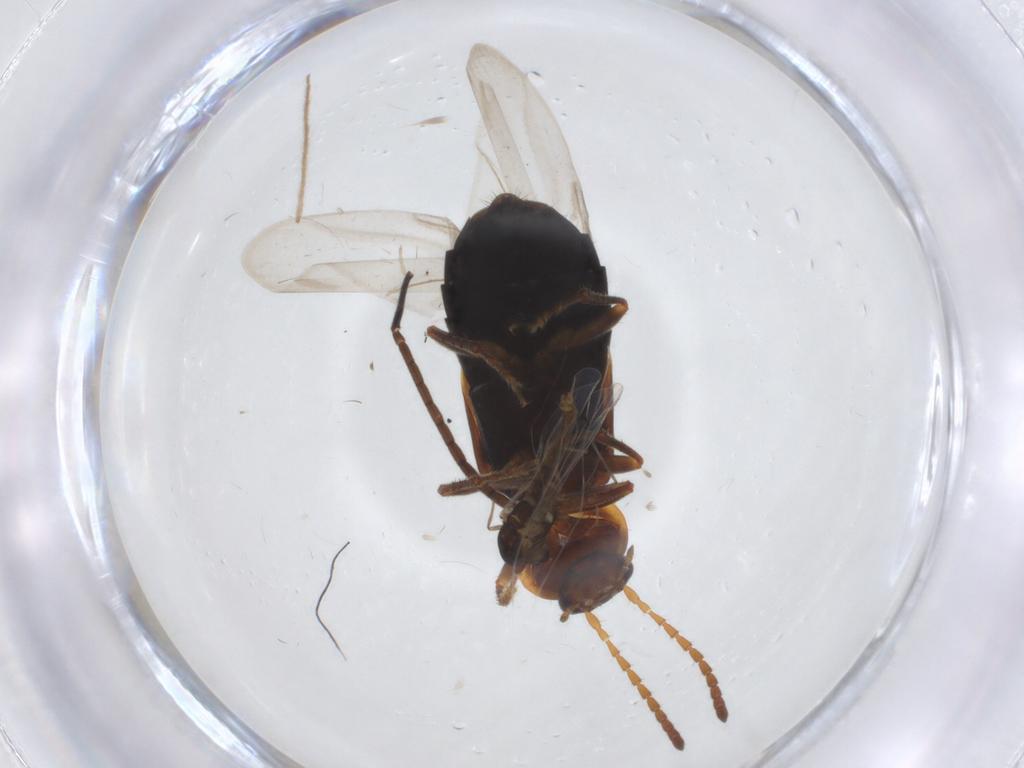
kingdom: Animalia
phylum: Arthropoda
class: Insecta
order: Coleoptera
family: Staphylinidae
